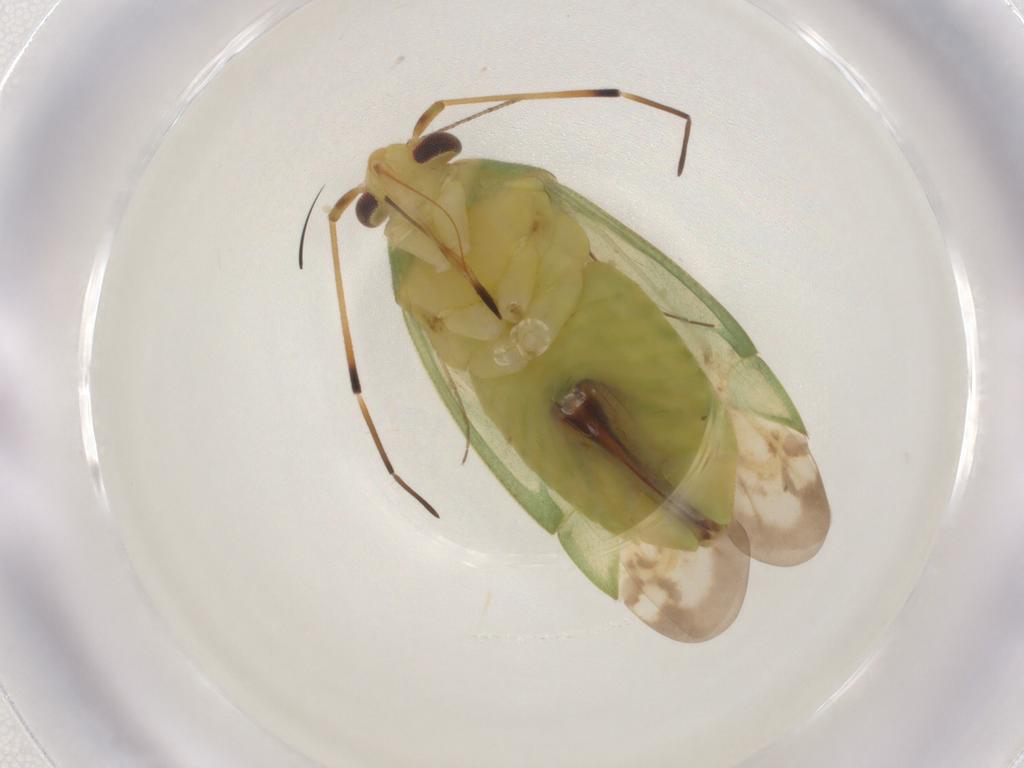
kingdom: Animalia
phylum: Arthropoda
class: Insecta
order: Hemiptera
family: Miridae
